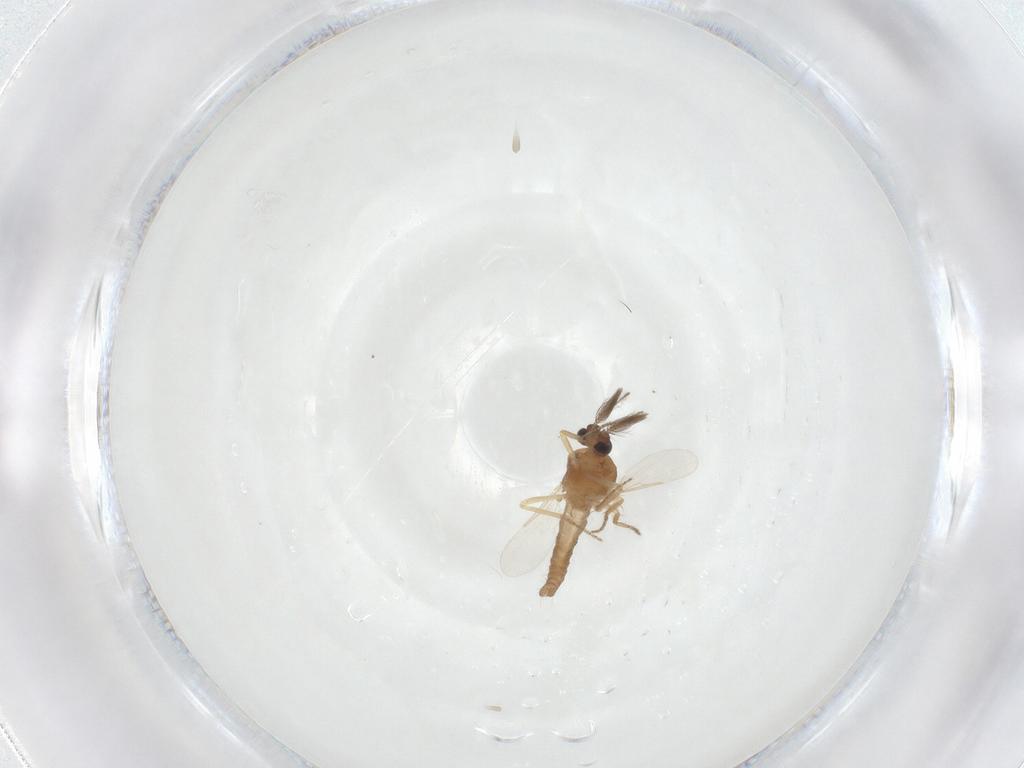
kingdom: Animalia
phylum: Arthropoda
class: Insecta
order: Diptera
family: Ceratopogonidae
